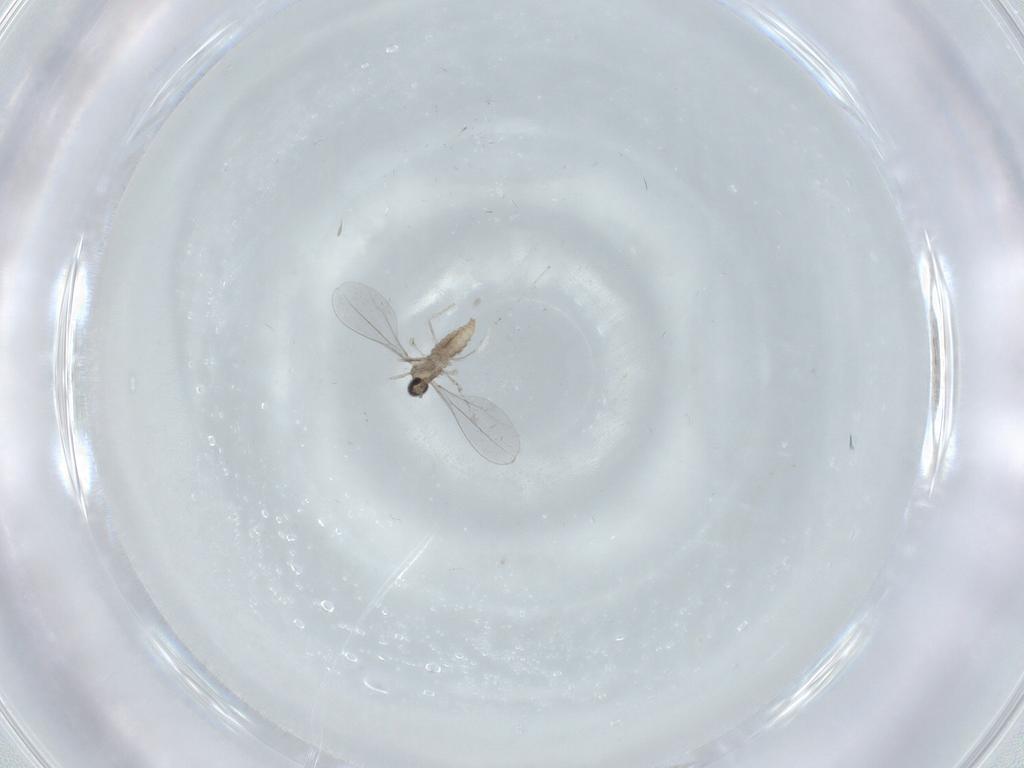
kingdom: Animalia
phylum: Arthropoda
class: Insecta
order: Diptera
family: Cecidomyiidae
